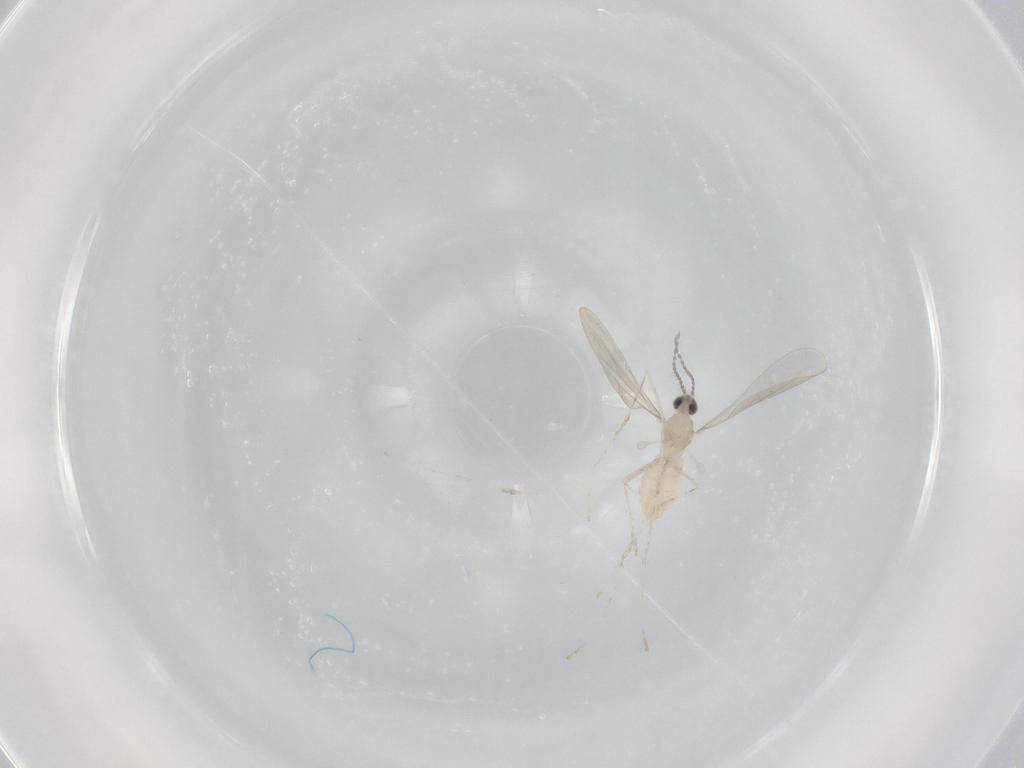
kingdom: Animalia
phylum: Arthropoda
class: Insecta
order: Diptera
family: Cecidomyiidae
